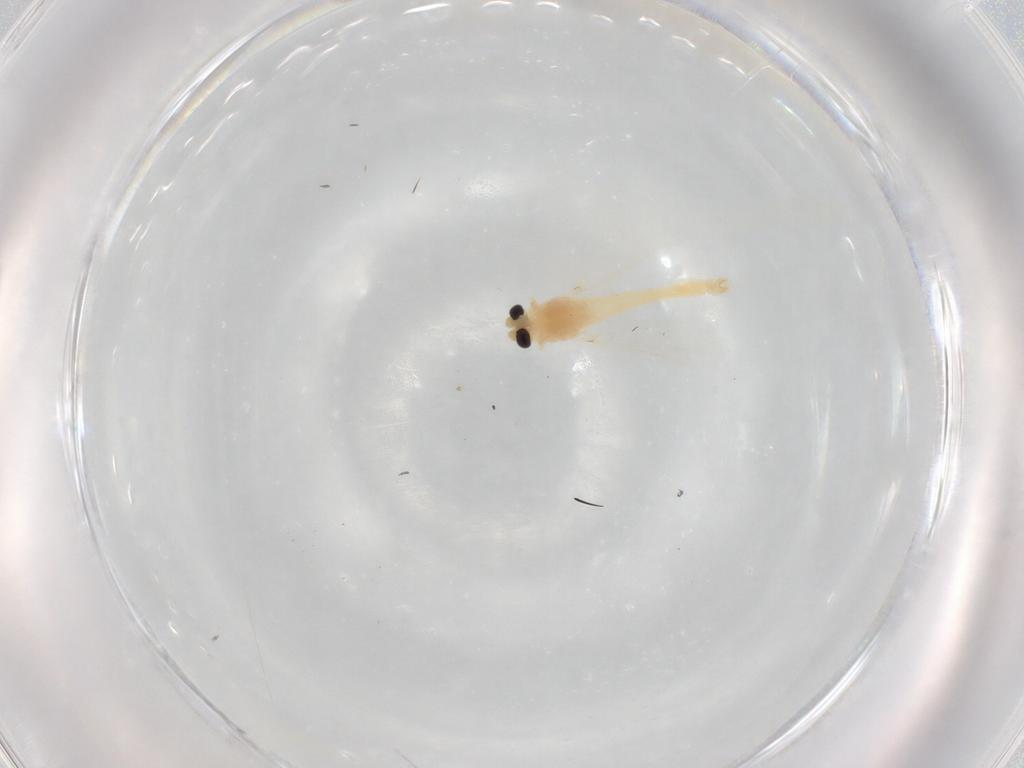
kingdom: Animalia
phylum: Arthropoda
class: Insecta
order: Diptera
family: Chironomidae
